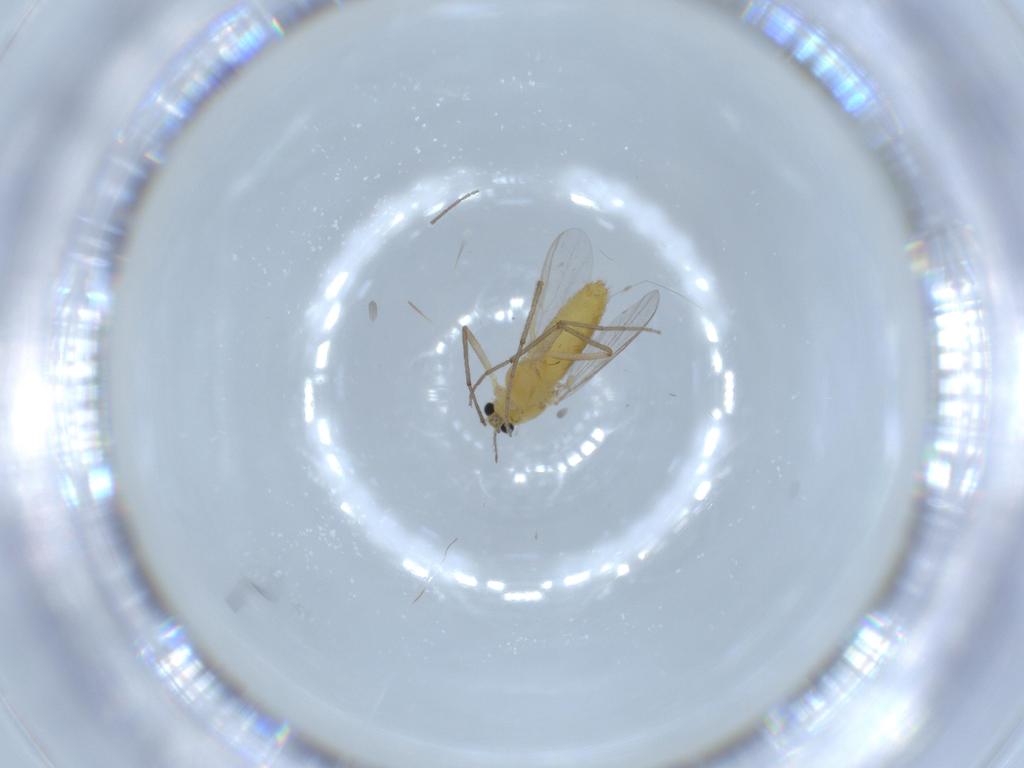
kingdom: Animalia
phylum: Arthropoda
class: Insecta
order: Diptera
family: Chironomidae
